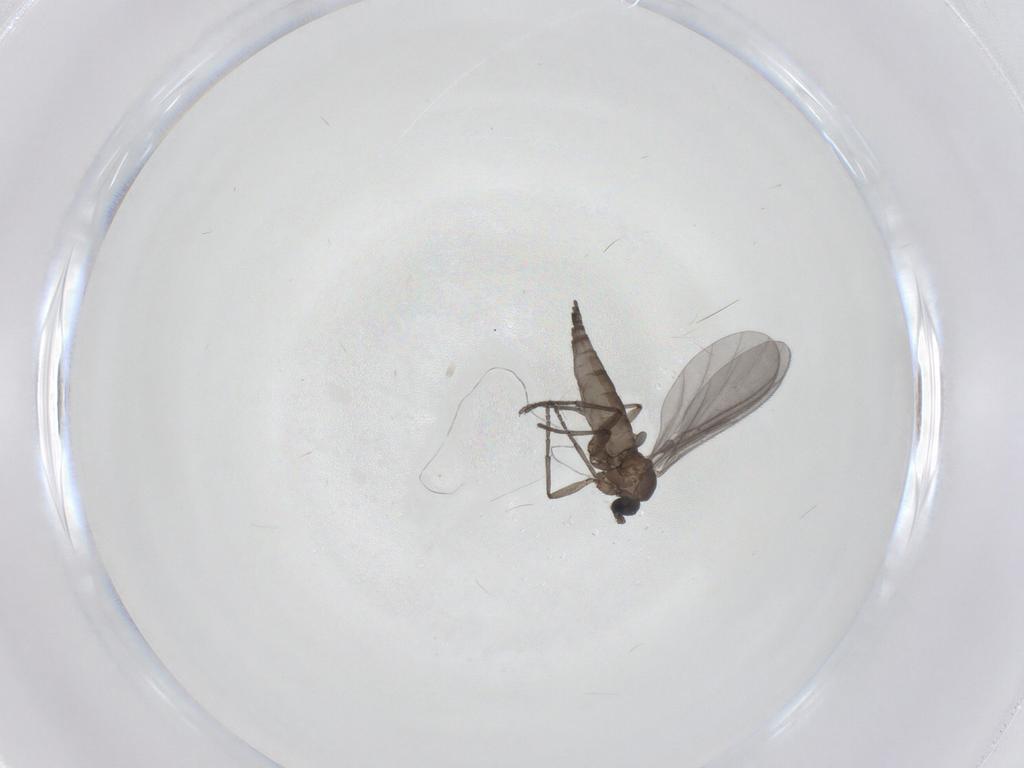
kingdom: Animalia
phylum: Arthropoda
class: Insecta
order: Diptera
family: Sciaridae
